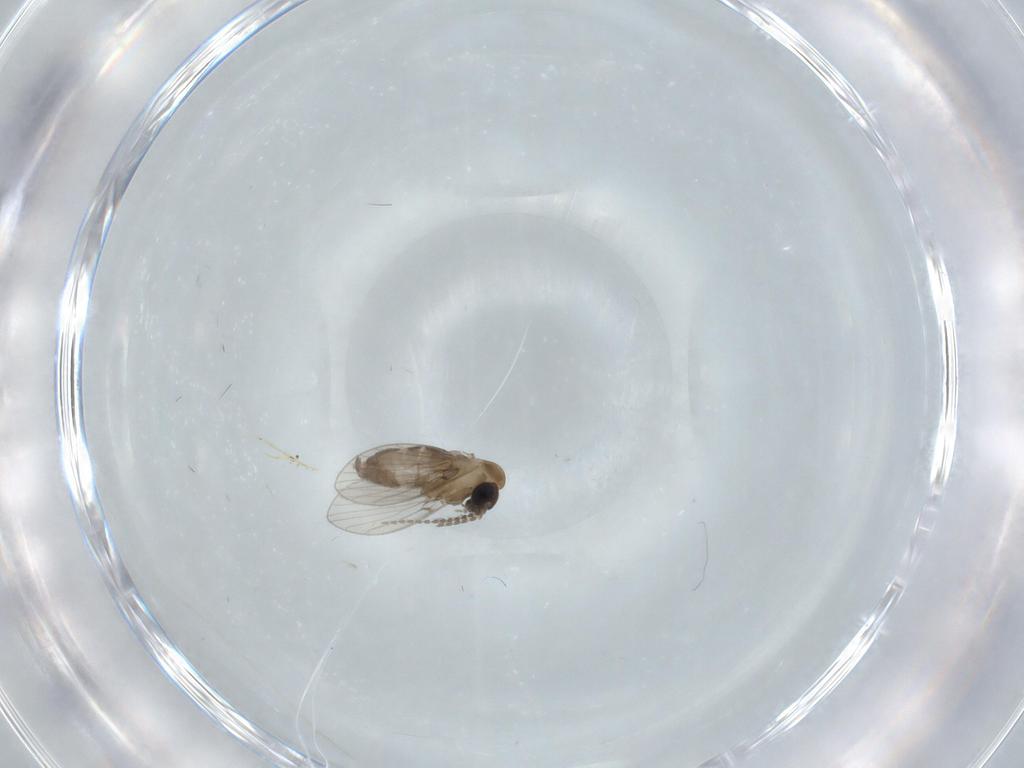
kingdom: Animalia
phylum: Arthropoda
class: Insecta
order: Diptera
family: Psychodidae
